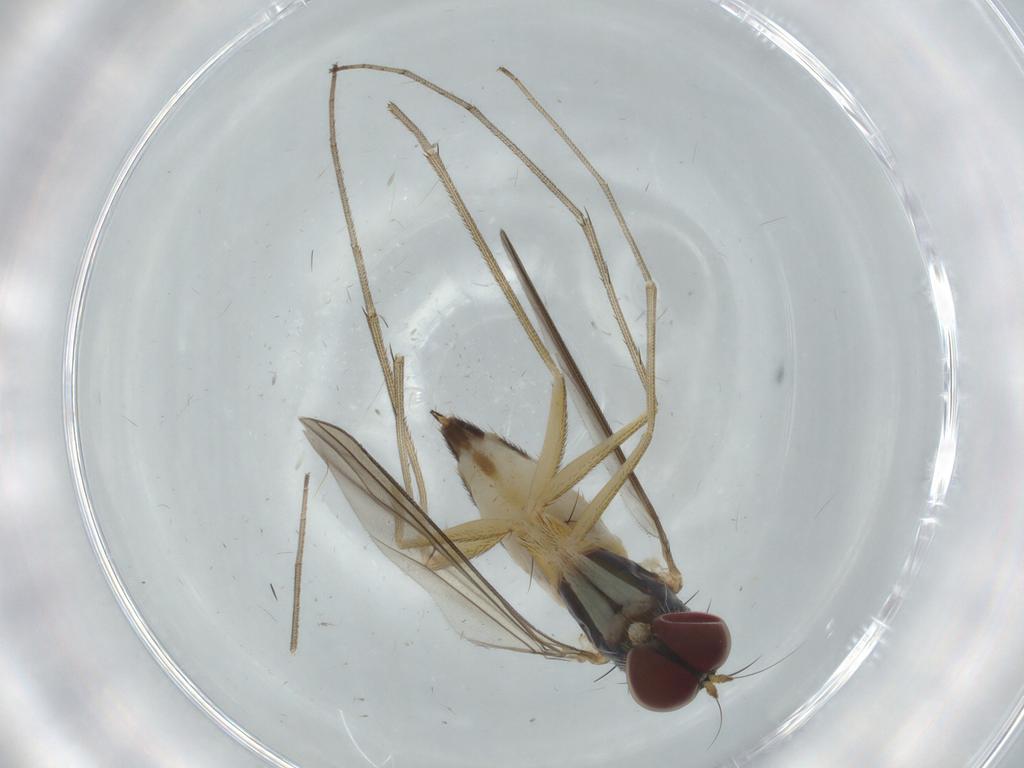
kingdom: Animalia
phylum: Arthropoda
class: Insecta
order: Diptera
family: Dolichopodidae
